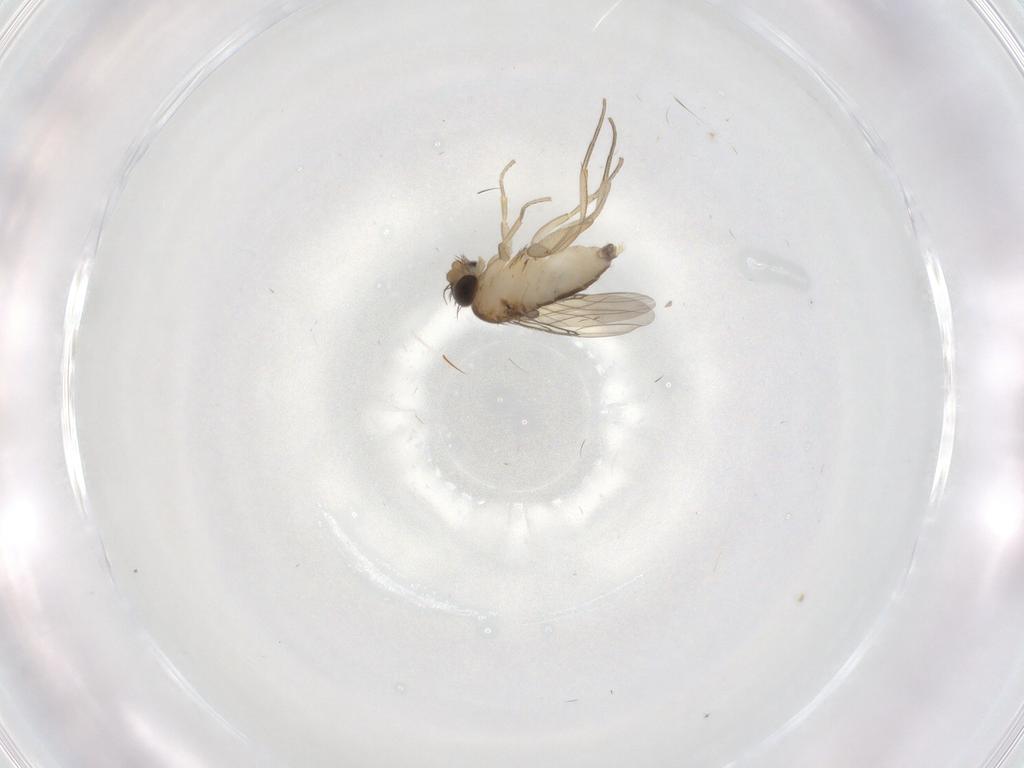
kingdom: Animalia
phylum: Arthropoda
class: Insecta
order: Diptera
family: Phoridae
